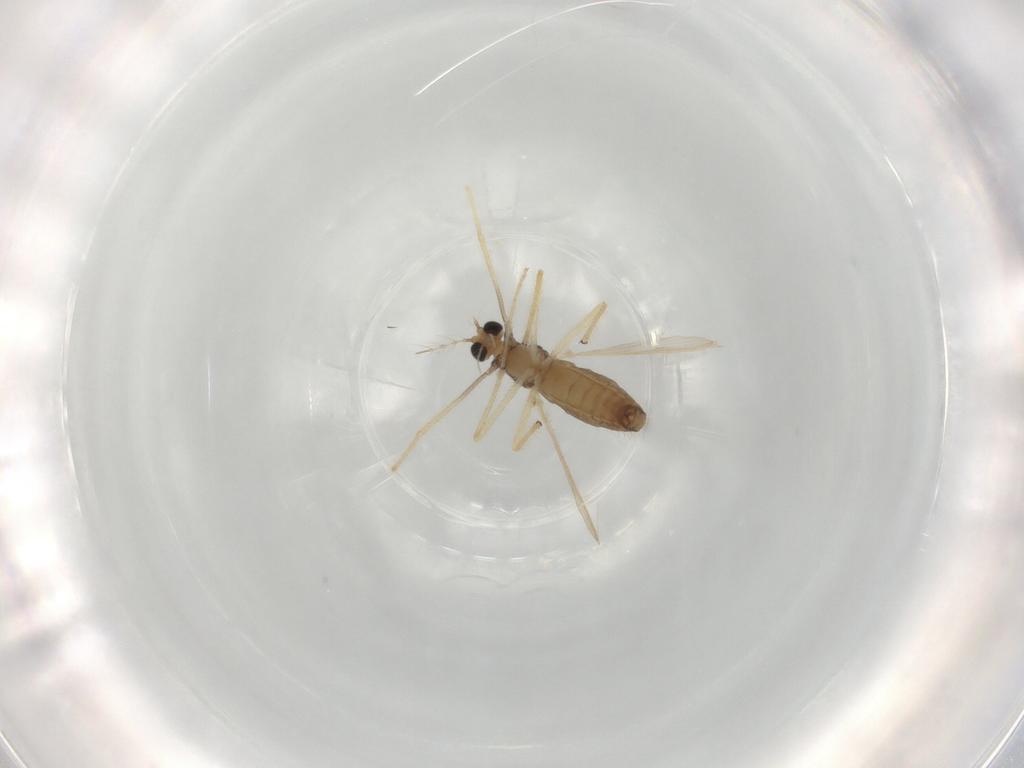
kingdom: Animalia
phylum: Arthropoda
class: Insecta
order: Diptera
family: Chironomidae
